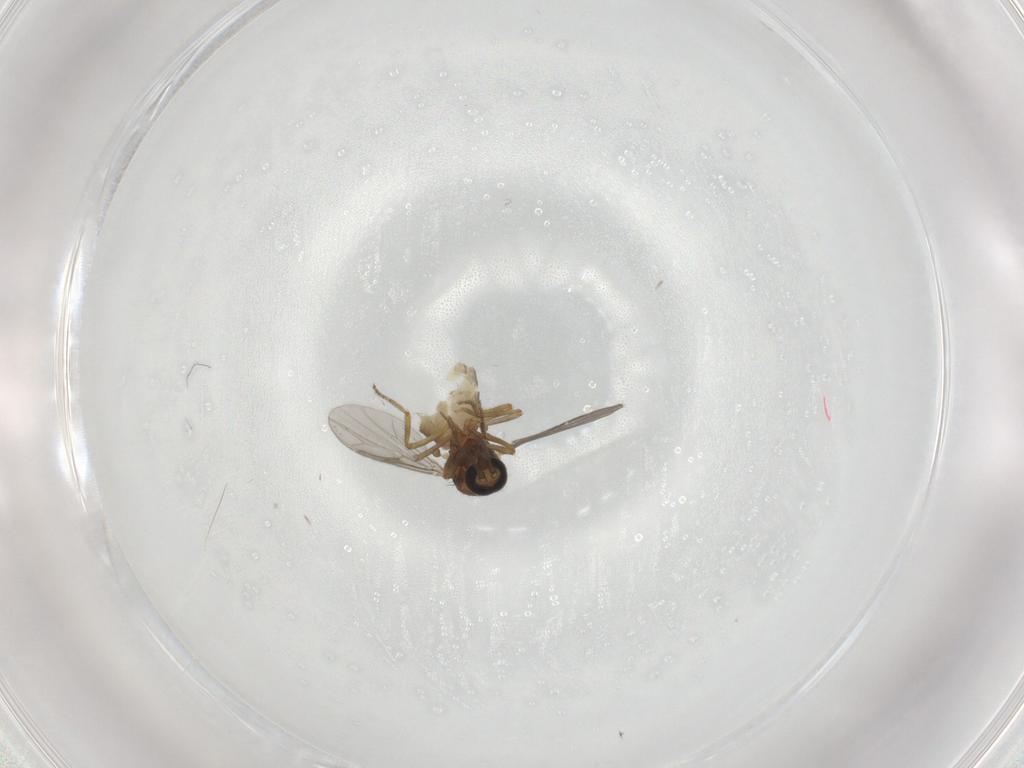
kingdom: Animalia
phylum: Arthropoda
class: Insecta
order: Diptera
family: Ceratopogonidae
